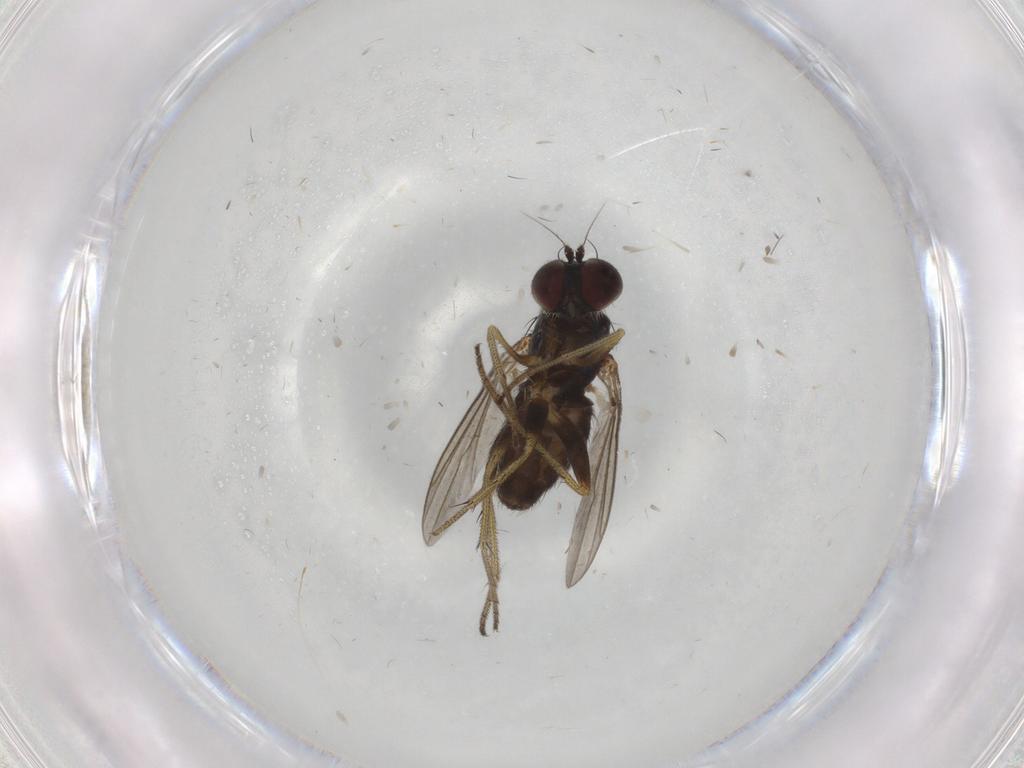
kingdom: Animalia
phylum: Arthropoda
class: Insecta
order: Diptera
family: Dolichopodidae
